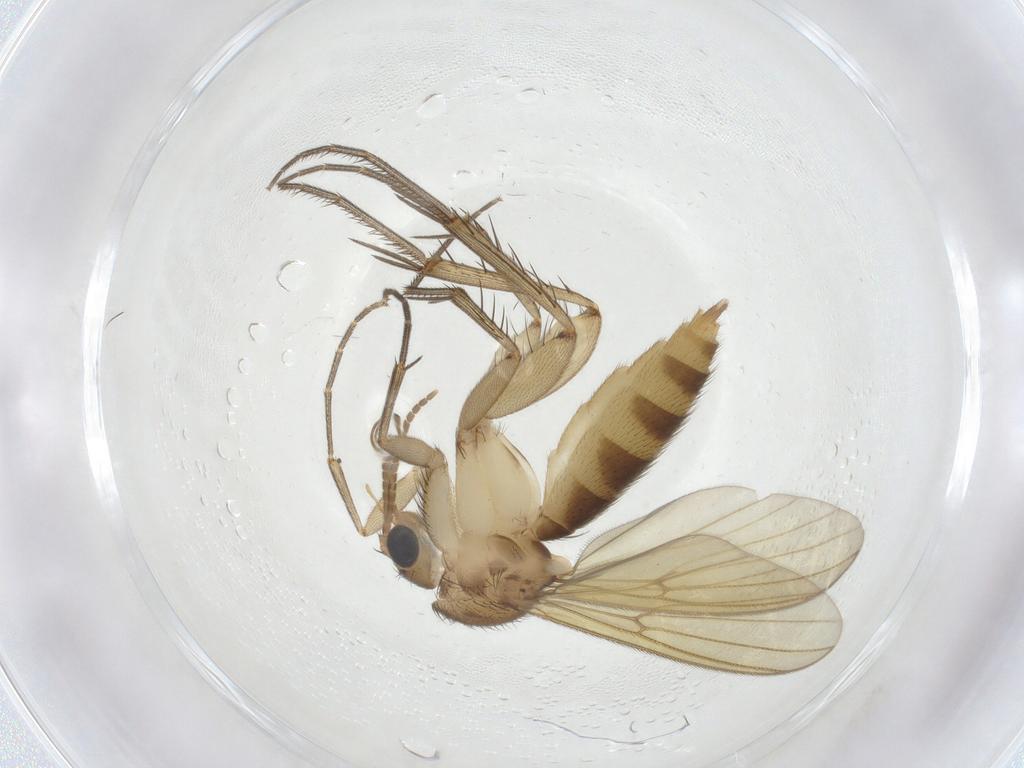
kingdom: Animalia
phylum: Arthropoda
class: Insecta
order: Diptera
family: Mycetophilidae
